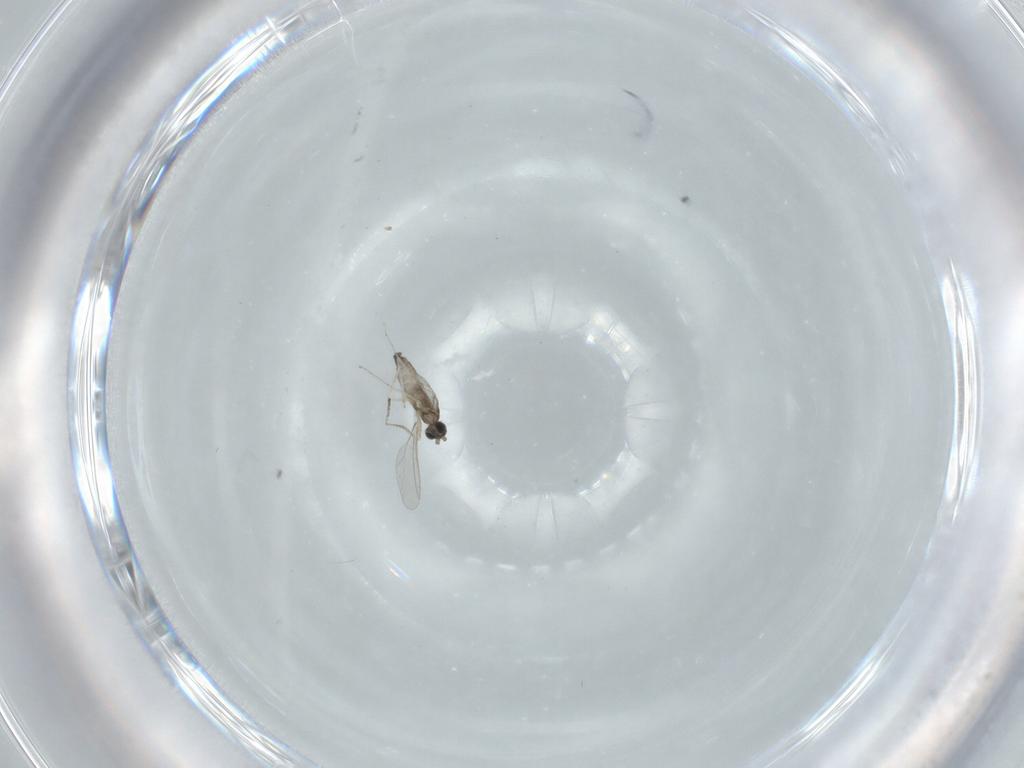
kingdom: Animalia
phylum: Arthropoda
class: Insecta
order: Diptera
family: Cecidomyiidae
